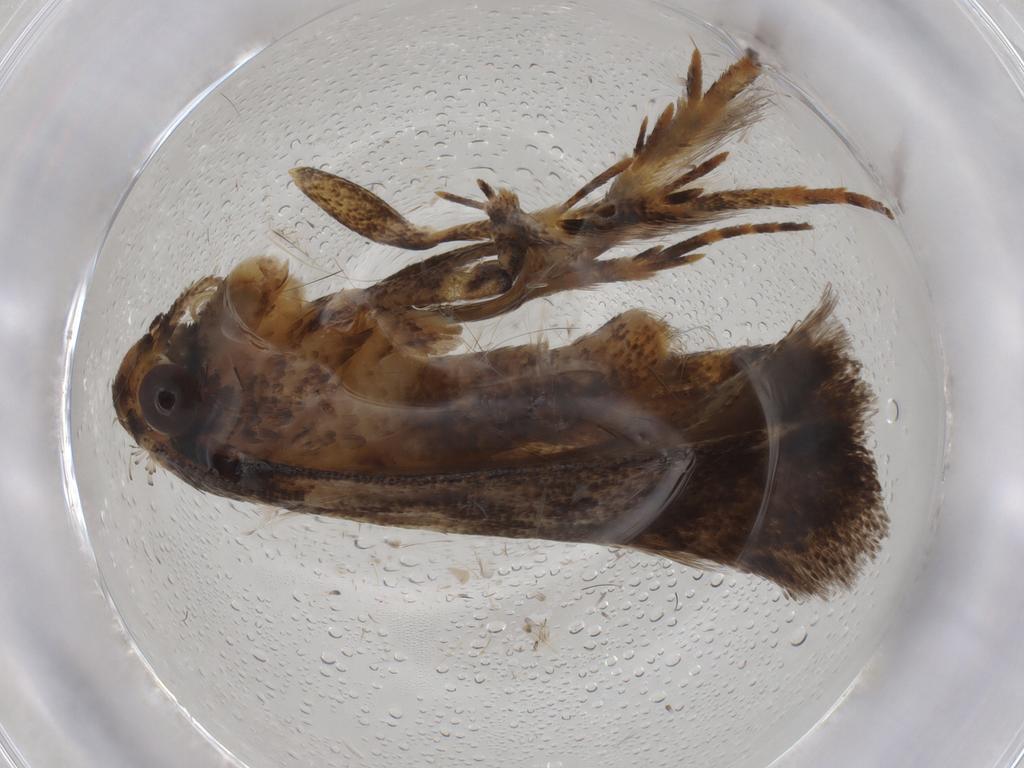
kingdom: Animalia
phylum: Arthropoda
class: Insecta
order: Lepidoptera
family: Gelechiidae
